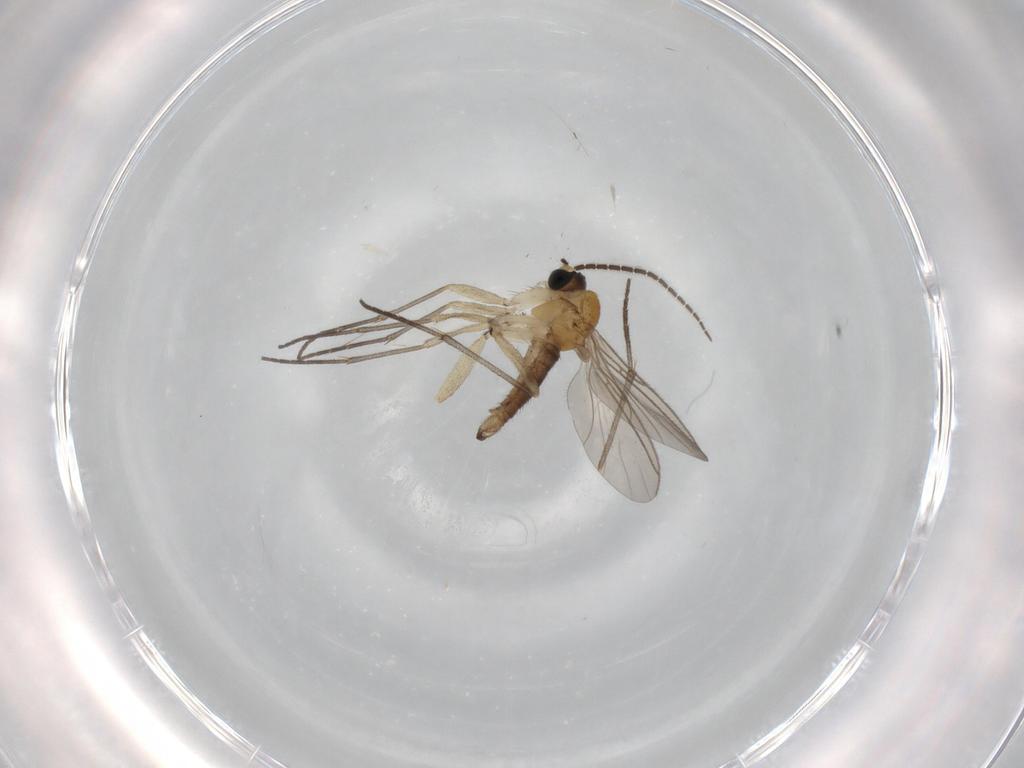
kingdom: Animalia
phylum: Arthropoda
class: Insecta
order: Diptera
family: Sciaridae
